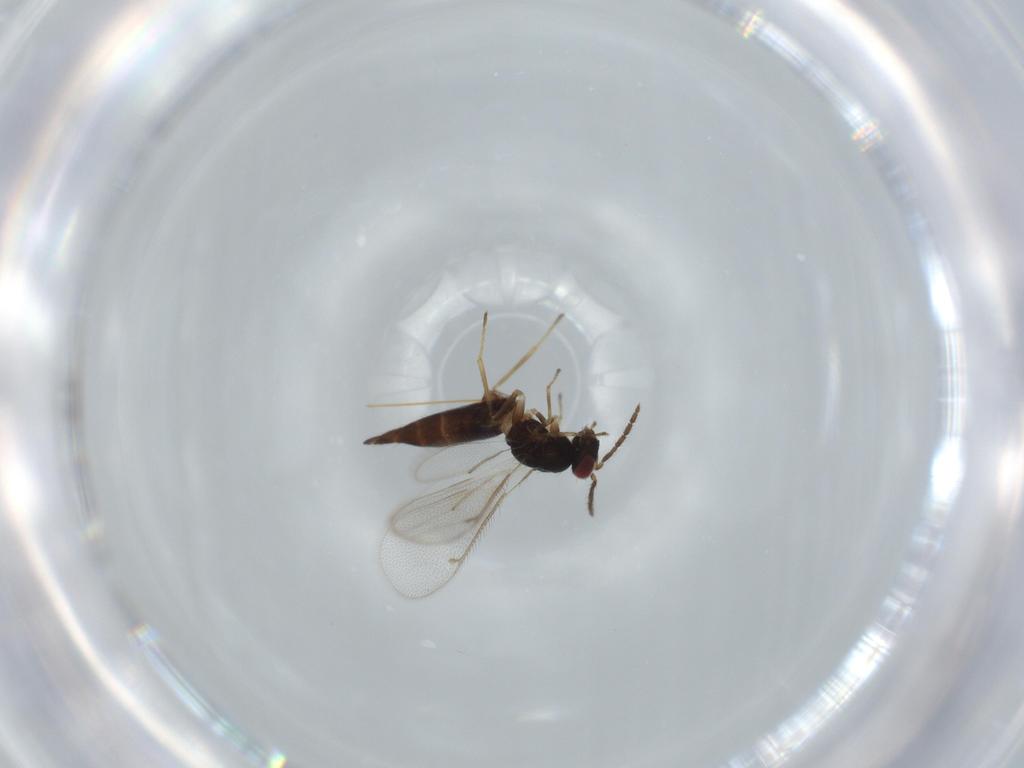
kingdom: Animalia
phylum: Arthropoda
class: Insecta
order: Hymenoptera
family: Eulophidae
